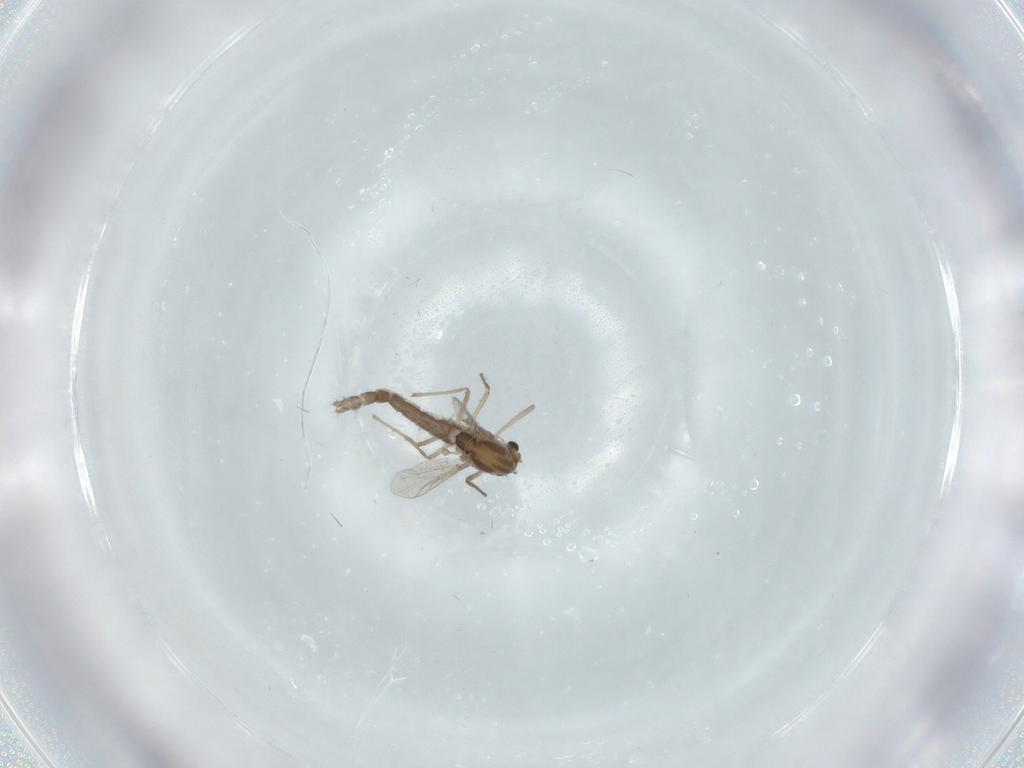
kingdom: Animalia
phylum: Arthropoda
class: Insecta
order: Diptera
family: Chironomidae
